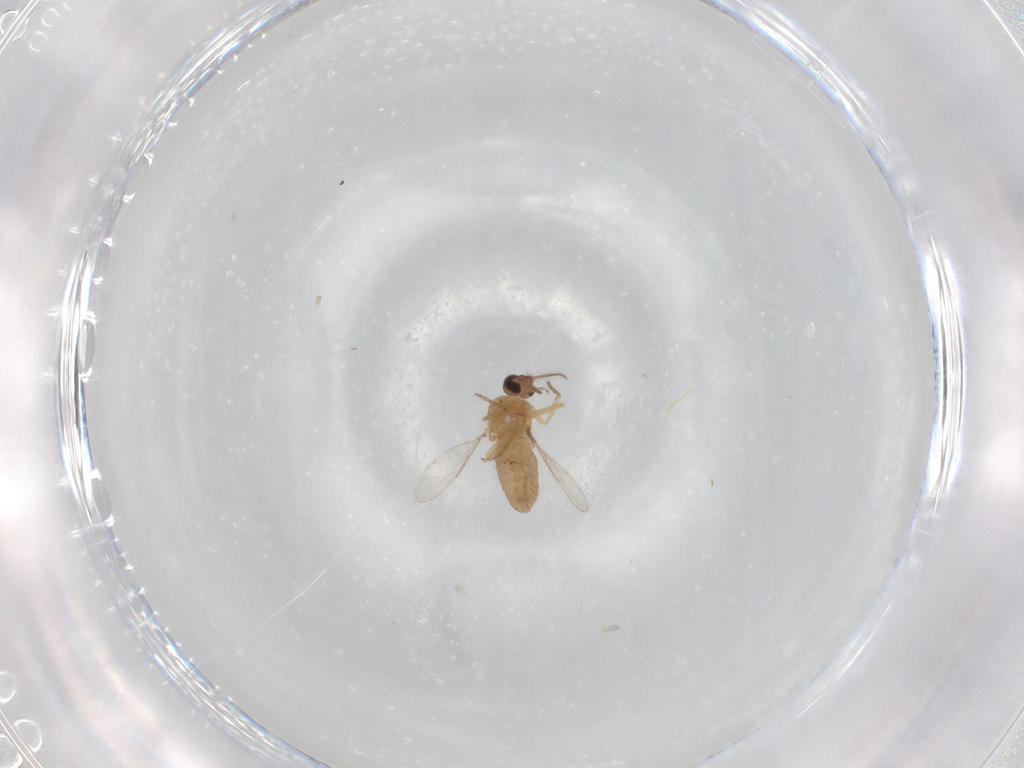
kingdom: Animalia
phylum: Arthropoda
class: Insecta
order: Diptera
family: Ceratopogonidae
